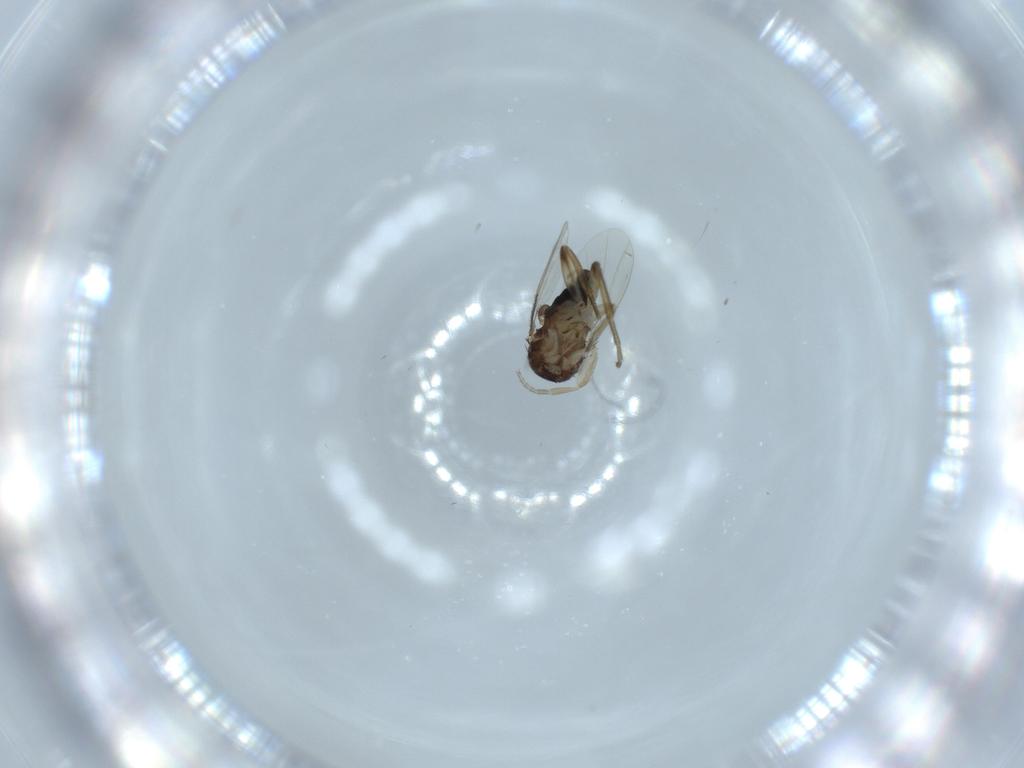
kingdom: Animalia
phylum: Arthropoda
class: Insecta
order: Diptera
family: Phoridae
